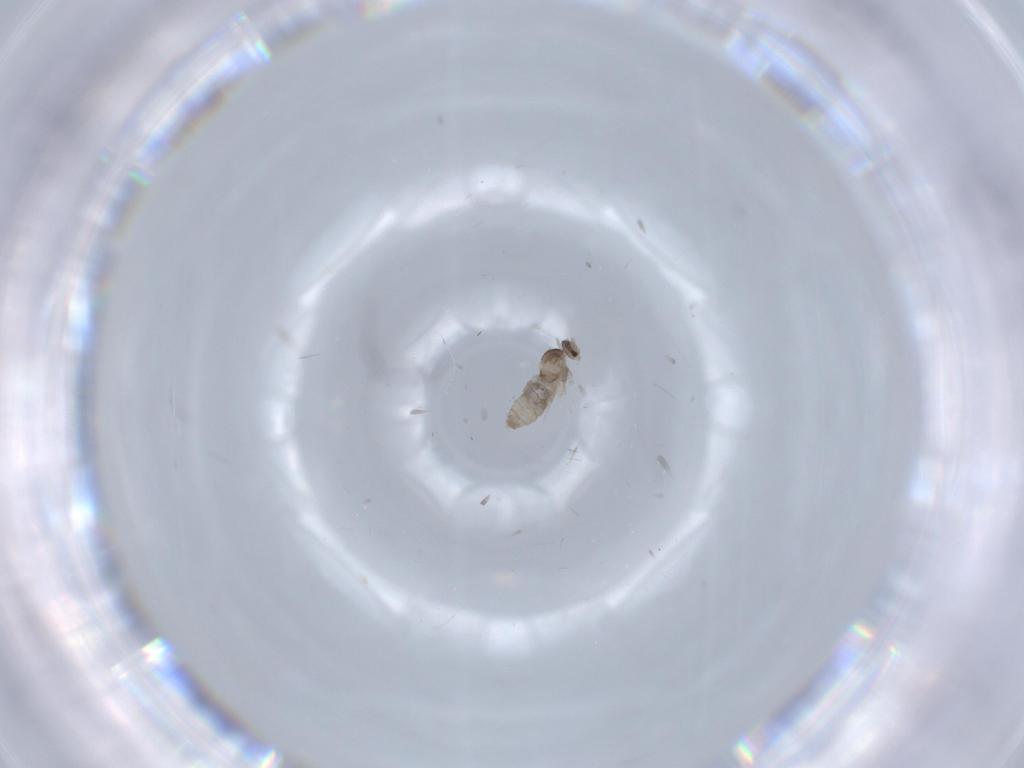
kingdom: Animalia
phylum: Arthropoda
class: Insecta
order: Diptera
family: Cecidomyiidae
